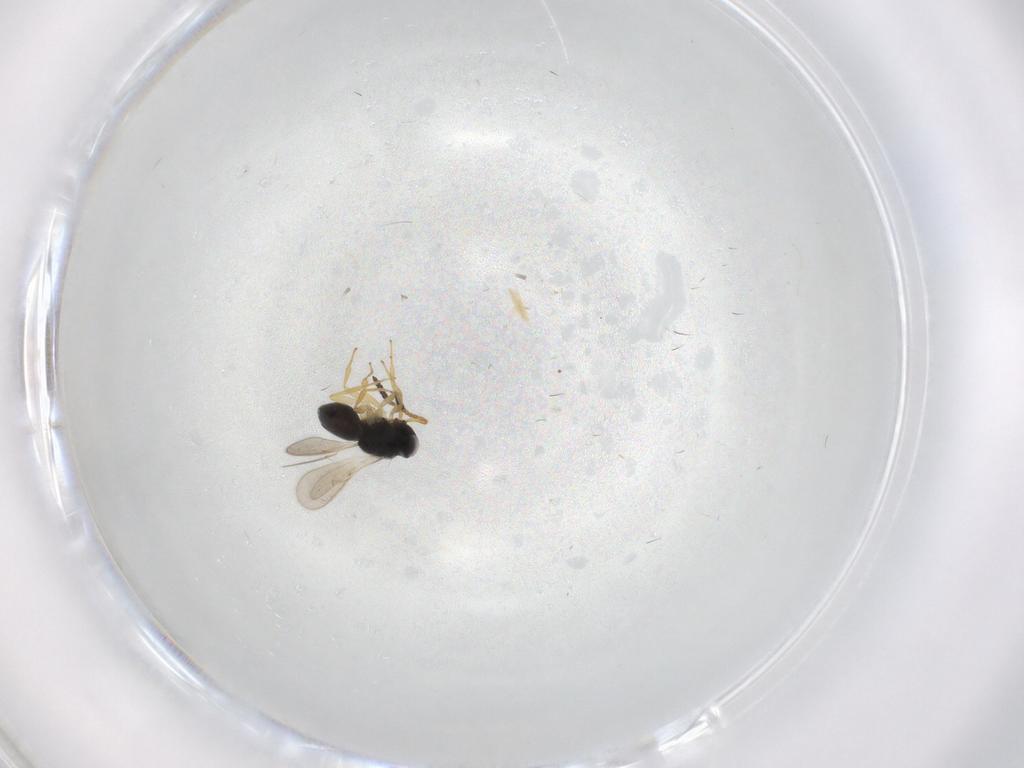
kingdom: Animalia
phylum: Arthropoda
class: Insecta
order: Hymenoptera
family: Scelionidae
